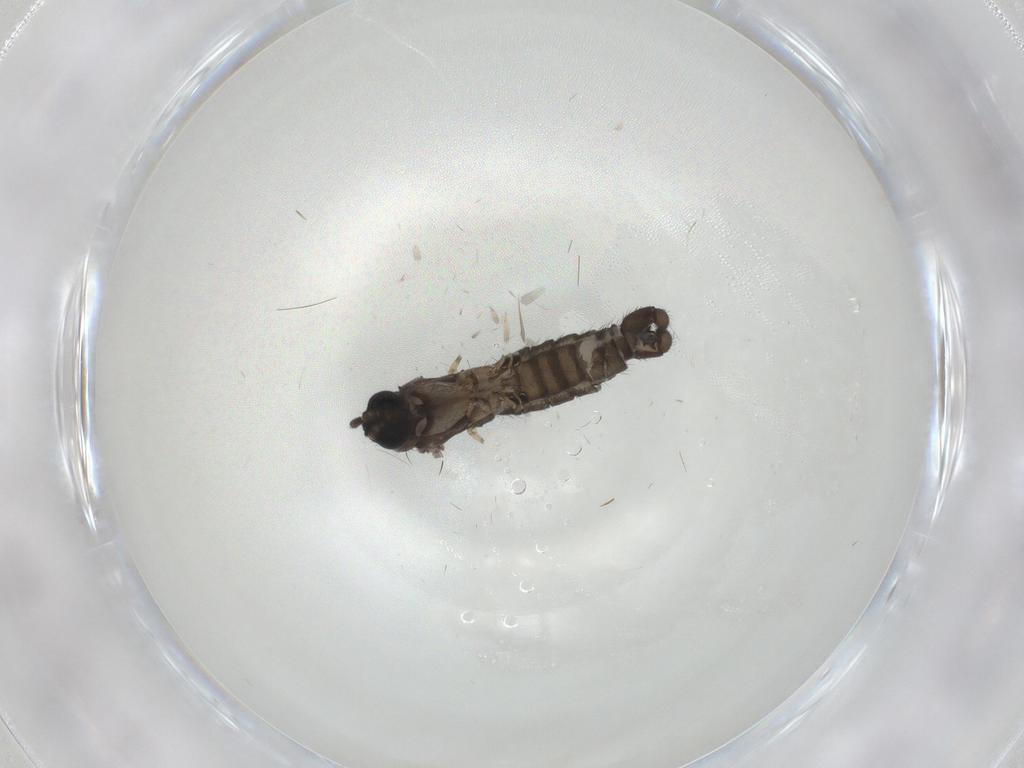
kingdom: Animalia
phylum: Arthropoda
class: Insecta
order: Diptera
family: Sciaridae
